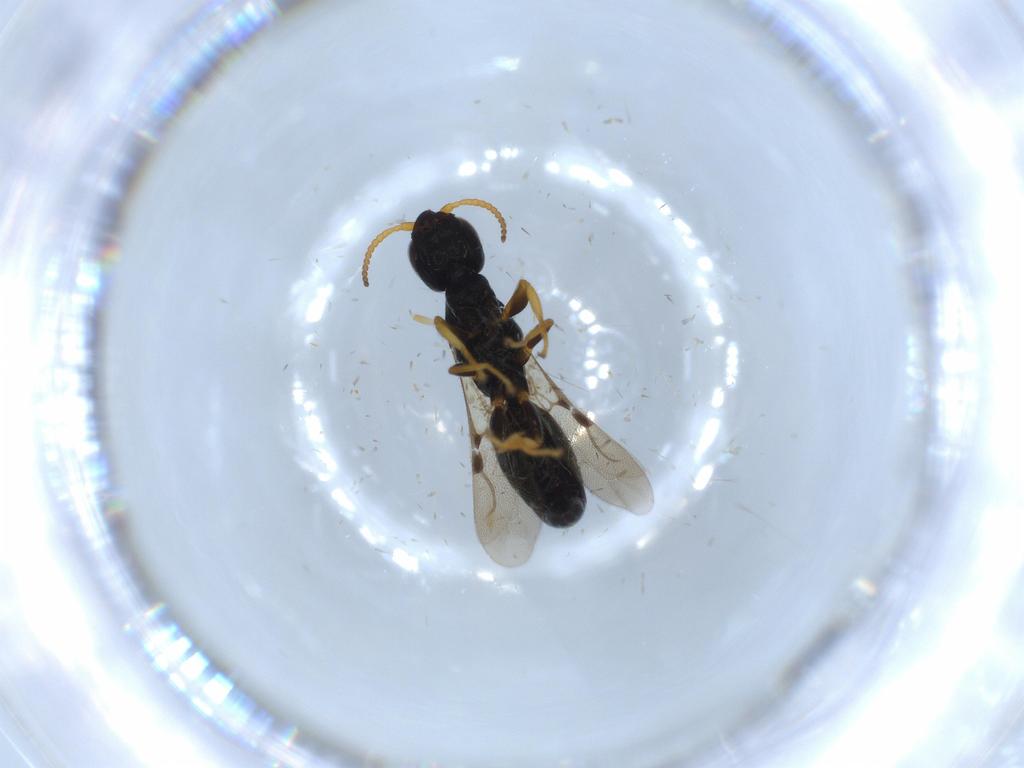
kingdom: Animalia
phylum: Arthropoda
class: Insecta
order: Hymenoptera
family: Bethylidae
